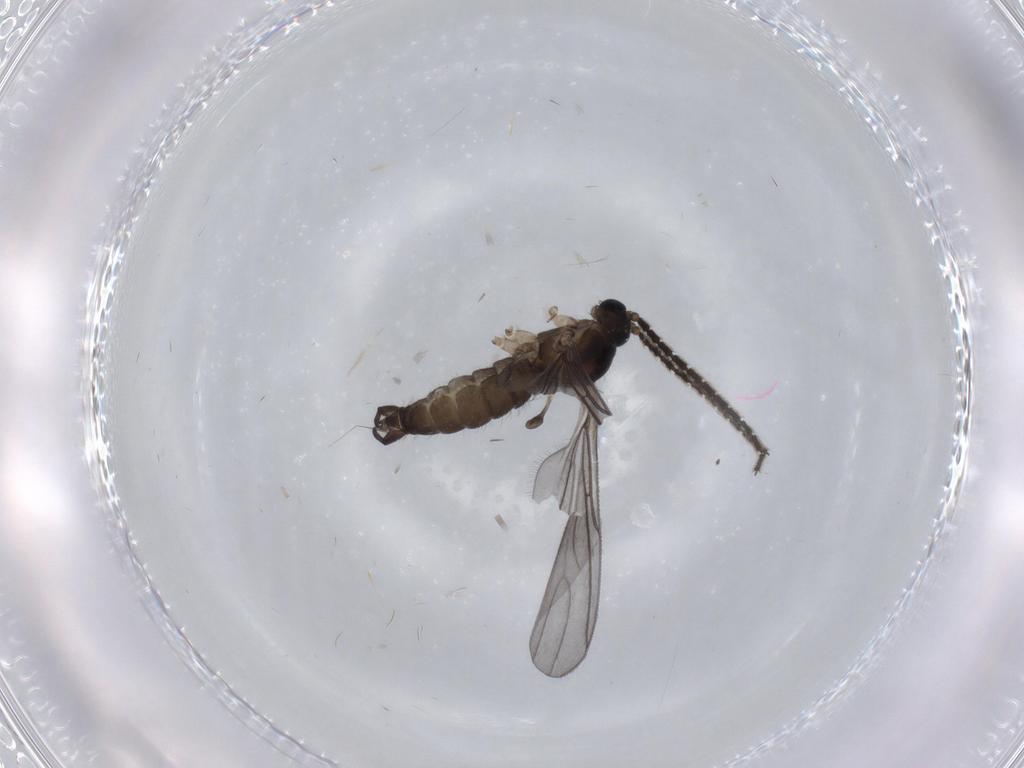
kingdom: Animalia
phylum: Arthropoda
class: Insecta
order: Diptera
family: Sciaridae
